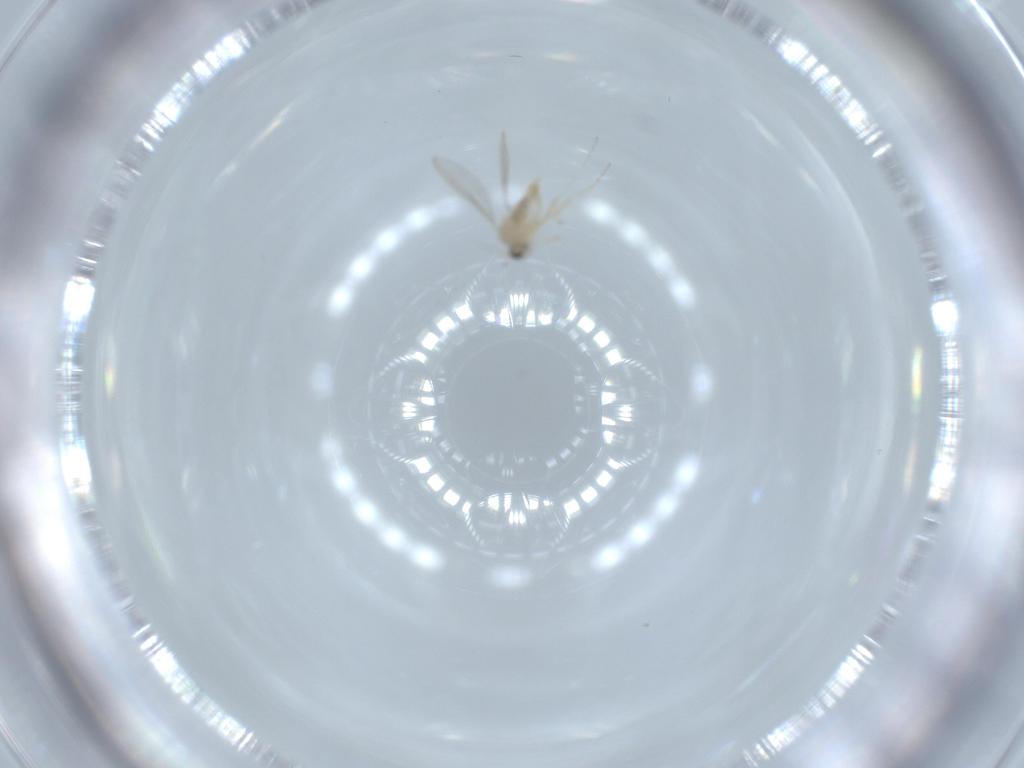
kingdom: Animalia
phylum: Arthropoda
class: Insecta
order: Diptera
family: Cecidomyiidae
